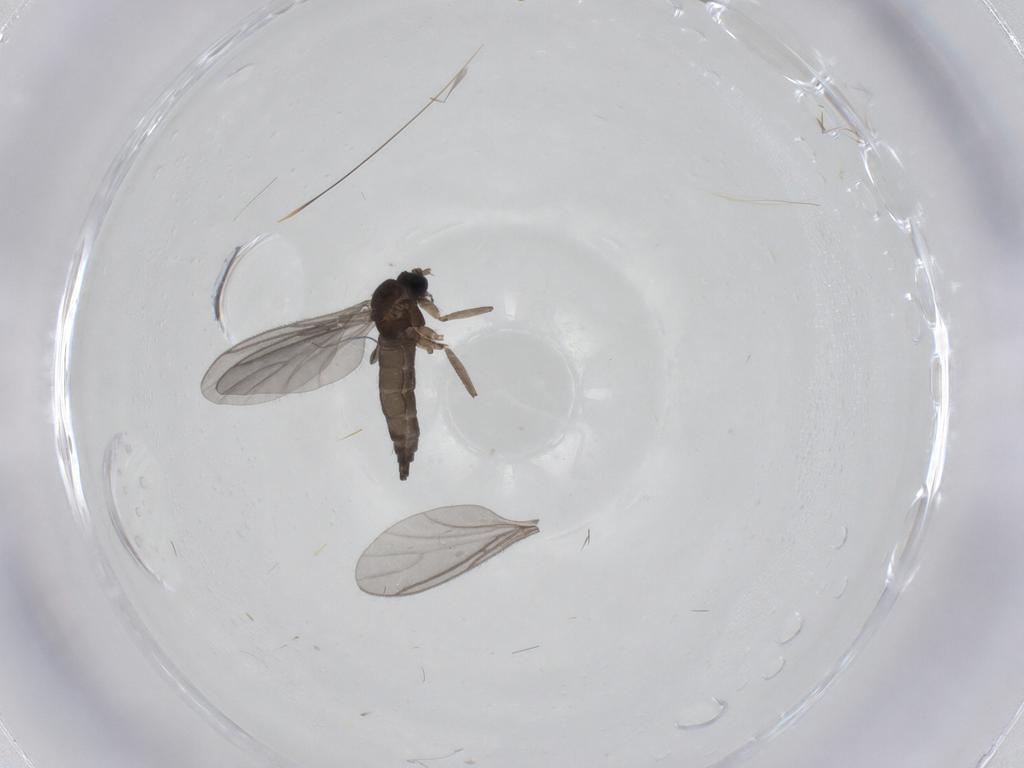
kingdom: Animalia
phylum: Arthropoda
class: Insecta
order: Diptera
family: Sciaridae
